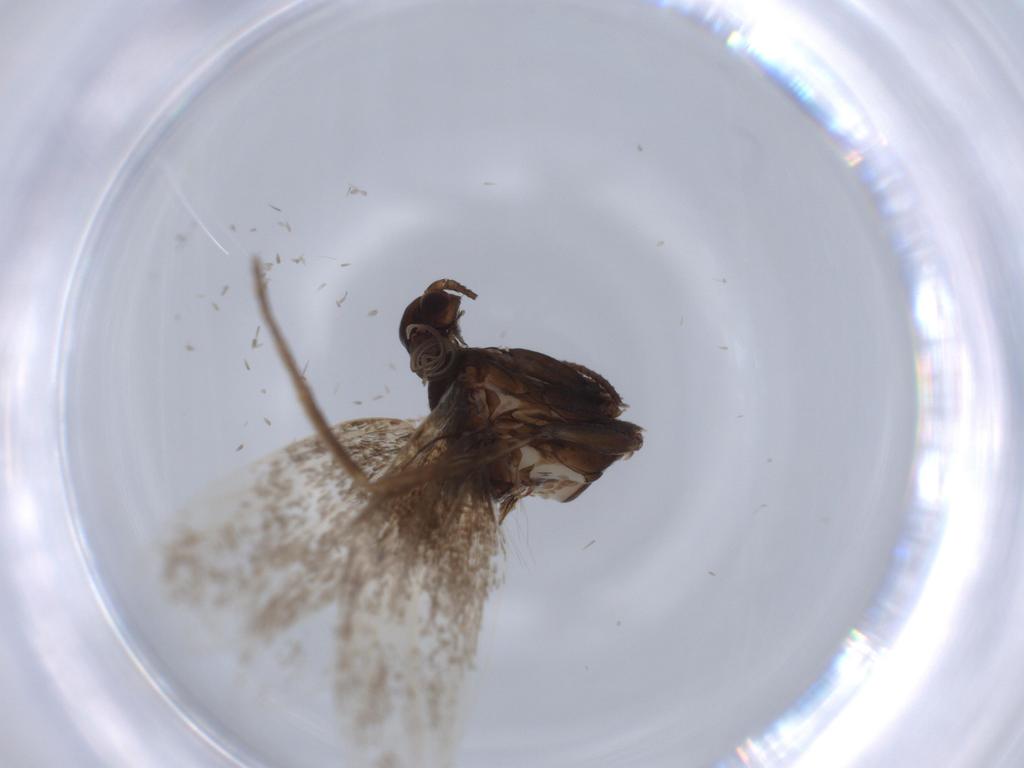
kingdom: Animalia
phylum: Arthropoda
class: Insecta
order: Lepidoptera
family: Gracillariidae
